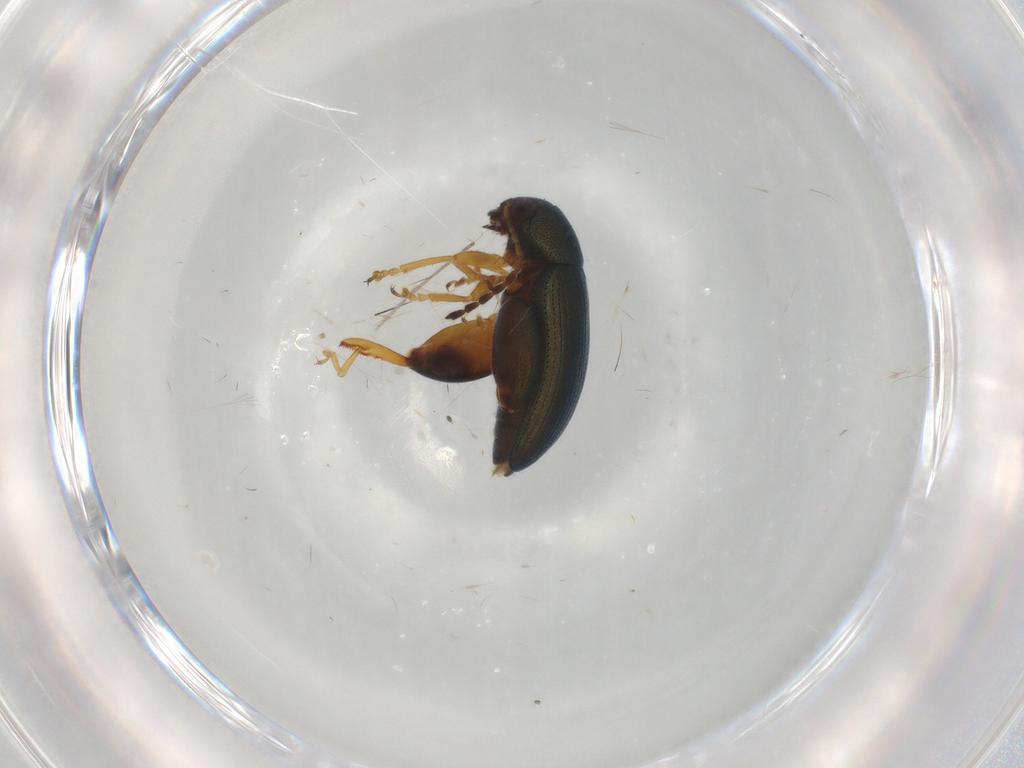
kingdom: Animalia
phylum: Arthropoda
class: Insecta
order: Coleoptera
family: Chrysomelidae
